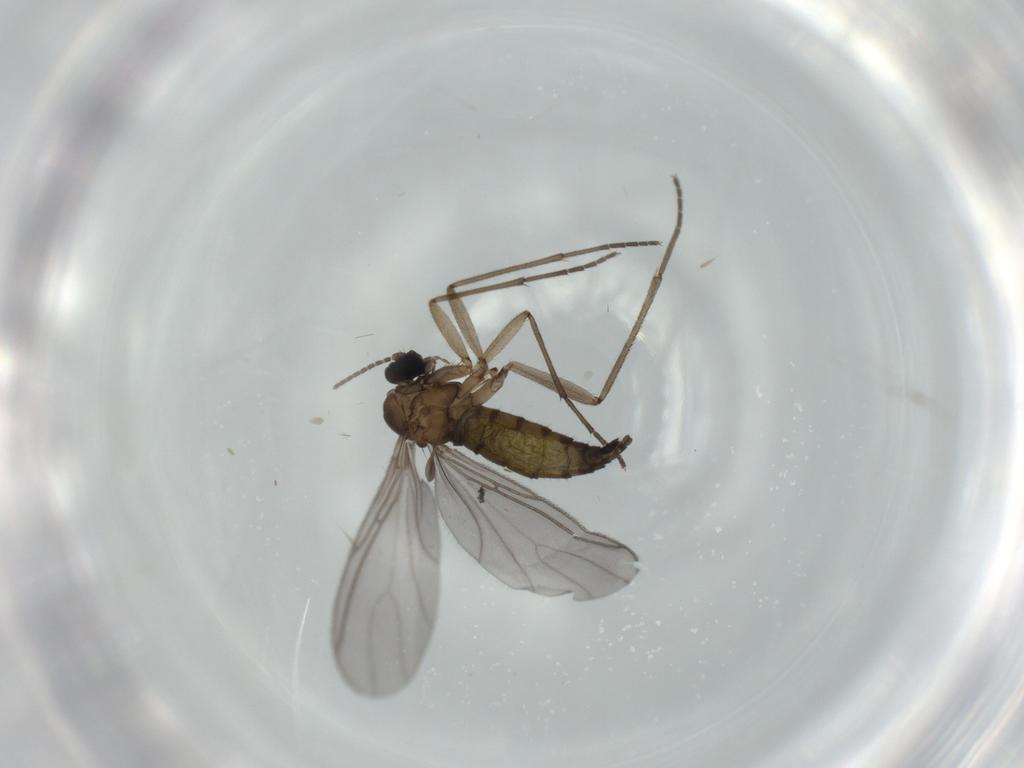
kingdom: Animalia
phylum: Arthropoda
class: Insecta
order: Diptera
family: Sciaridae
